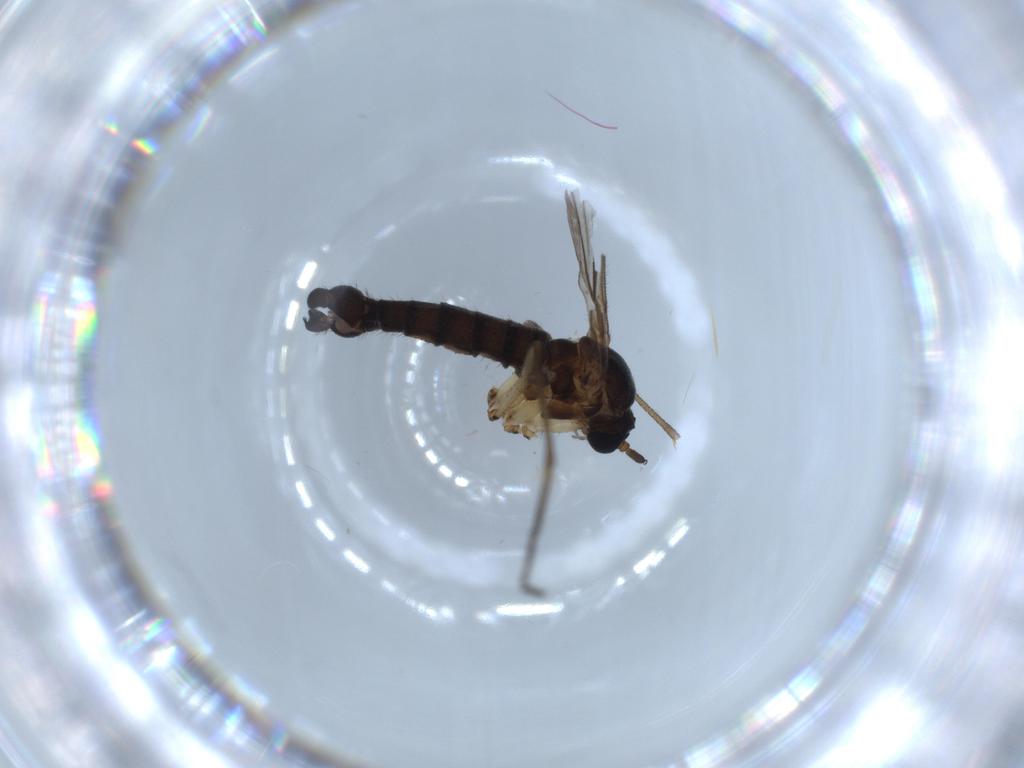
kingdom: Animalia
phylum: Arthropoda
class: Insecta
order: Diptera
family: Sciaridae
